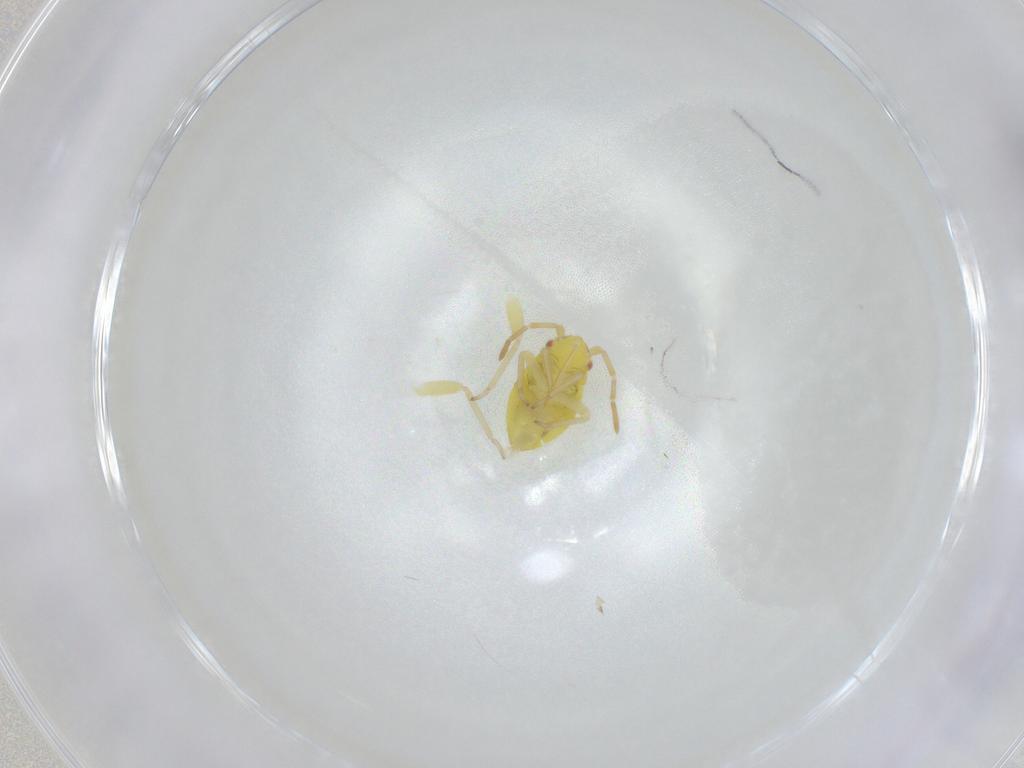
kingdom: Animalia
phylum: Arthropoda
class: Insecta
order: Hemiptera
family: Miridae
